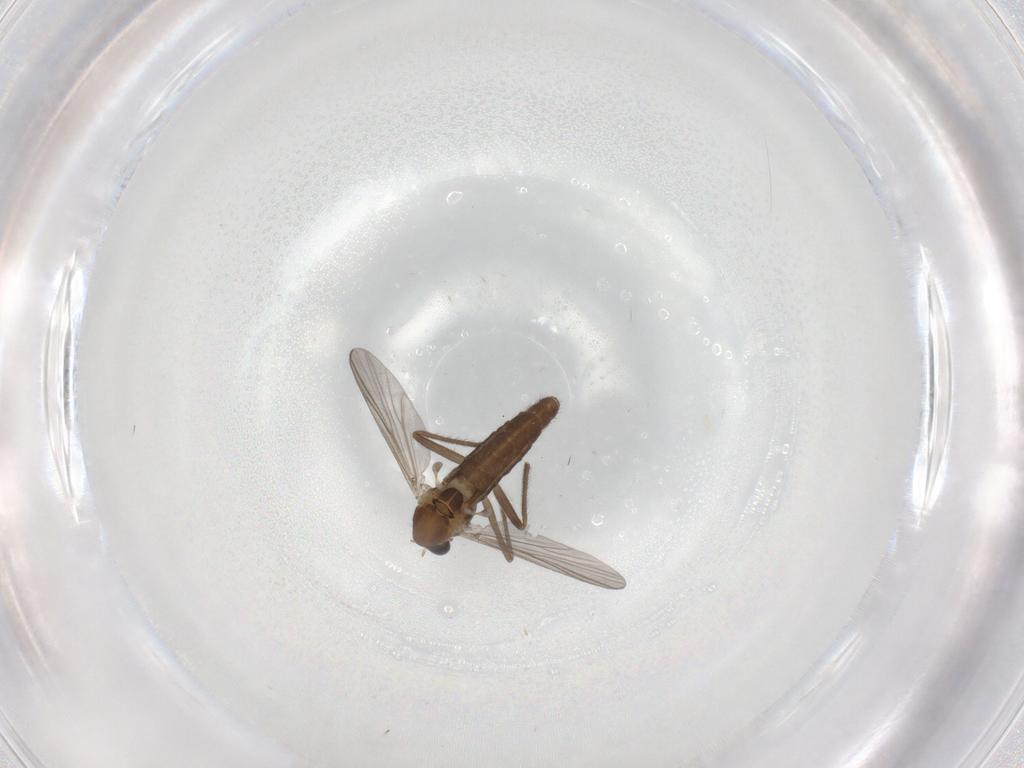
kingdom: Animalia
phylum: Arthropoda
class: Insecta
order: Diptera
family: Chironomidae
